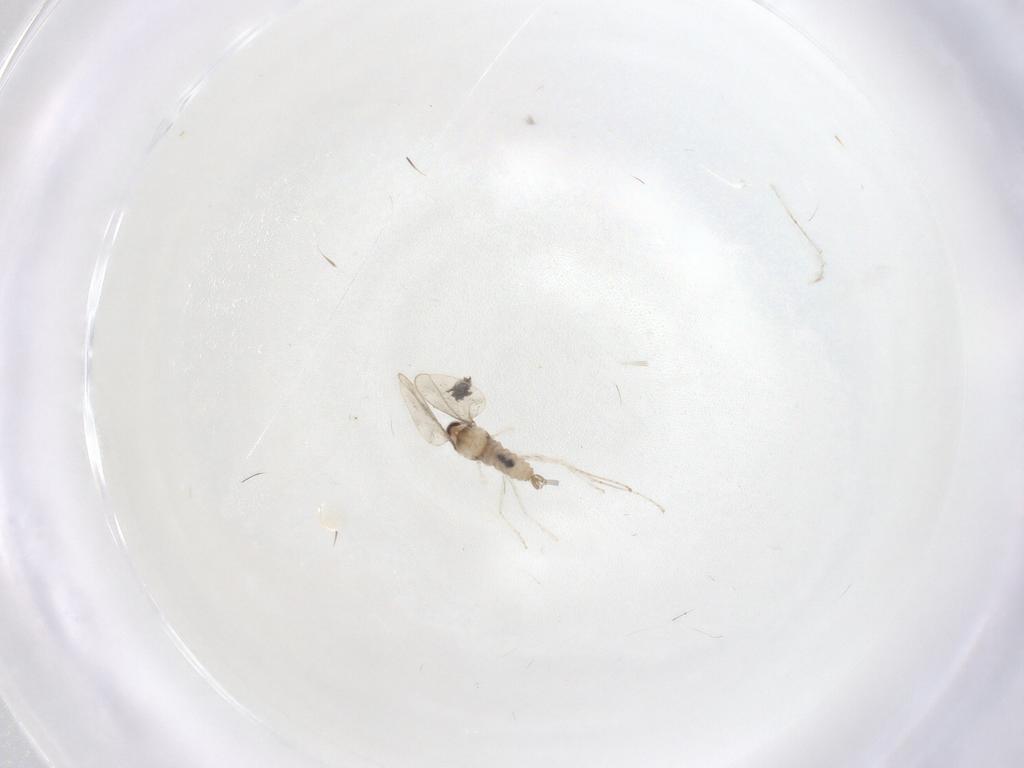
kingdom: Animalia
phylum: Arthropoda
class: Insecta
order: Diptera
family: Cecidomyiidae
